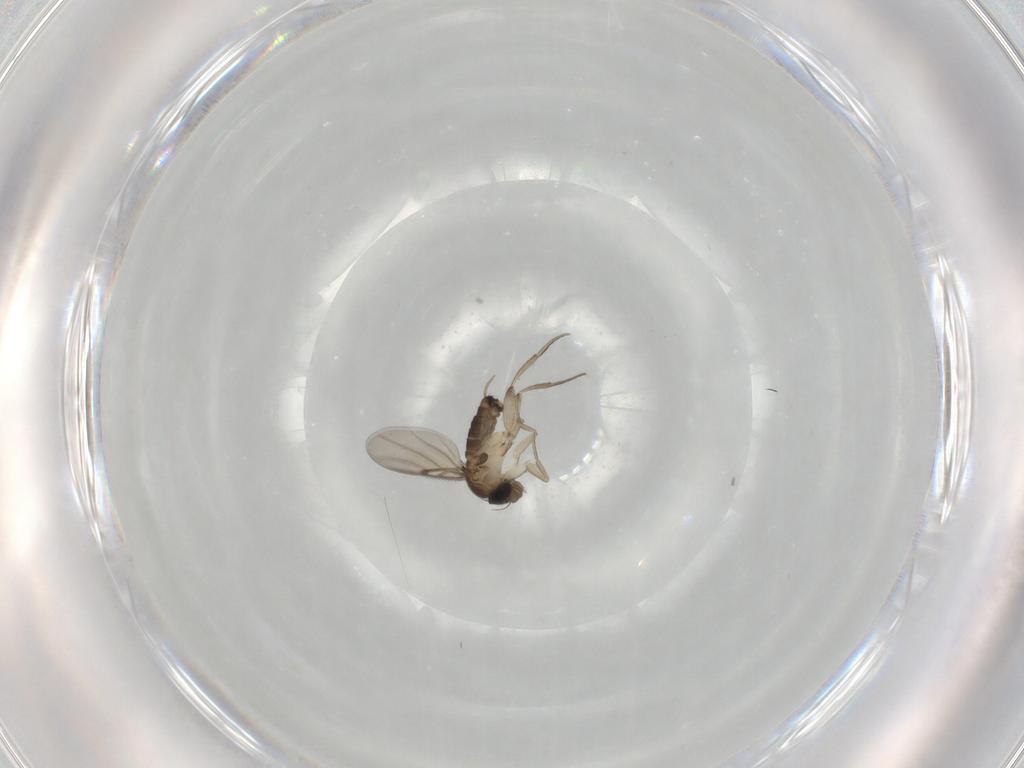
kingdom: Animalia
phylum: Arthropoda
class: Insecta
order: Diptera
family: Phoridae
